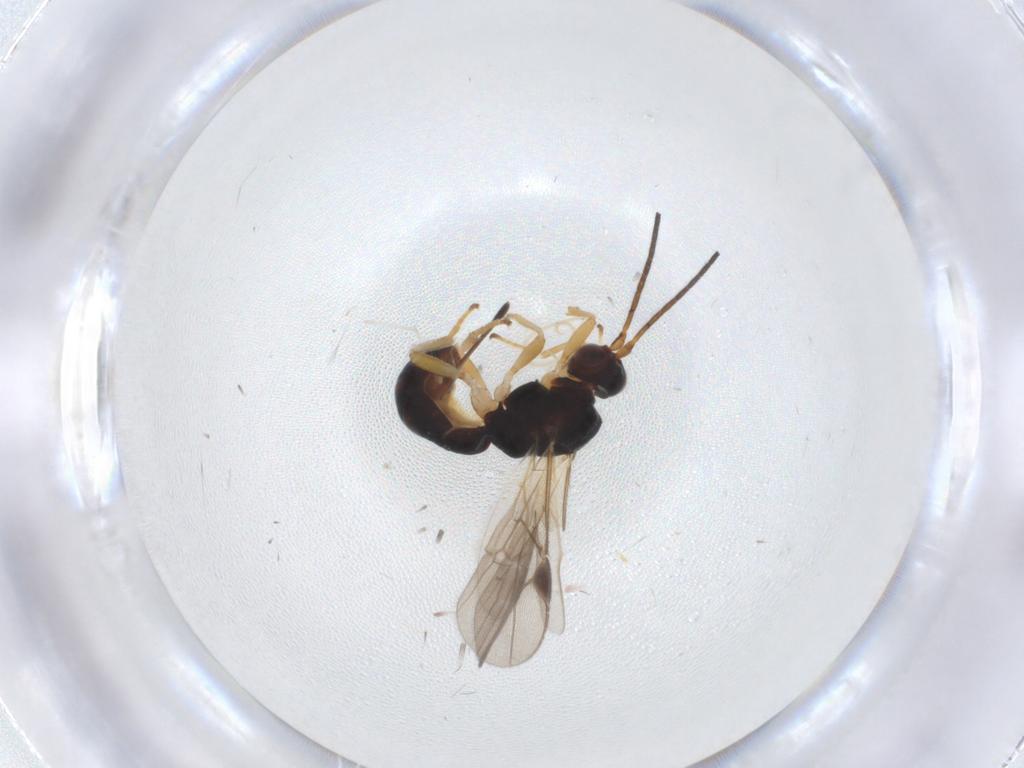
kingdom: Animalia
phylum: Arthropoda
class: Insecta
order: Hymenoptera
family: Braconidae
